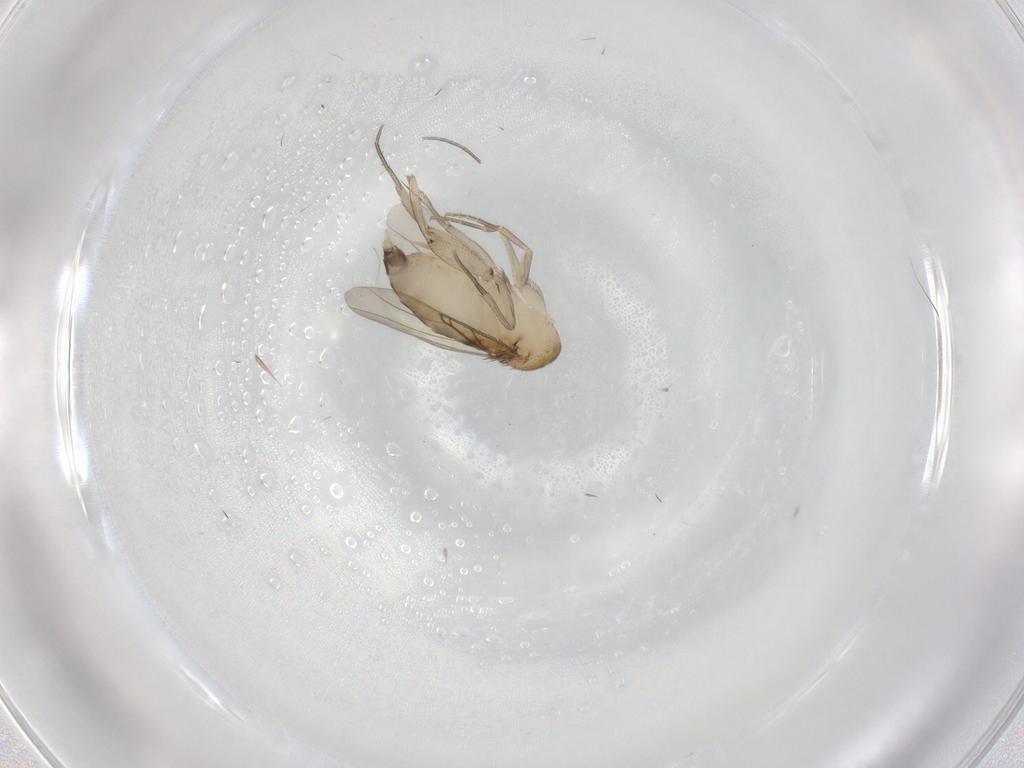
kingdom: Animalia
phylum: Arthropoda
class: Insecta
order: Diptera
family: Phoridae
